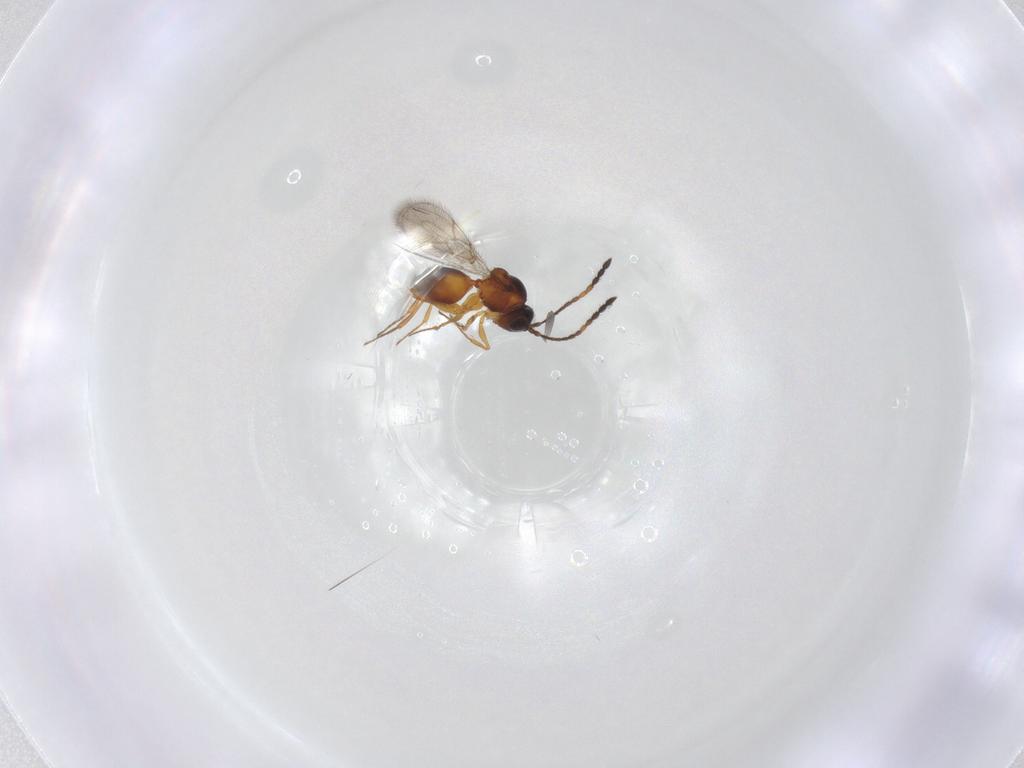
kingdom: Animalia
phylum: Arthropoda
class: Insecta
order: Hymenoptera
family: Figitidae
